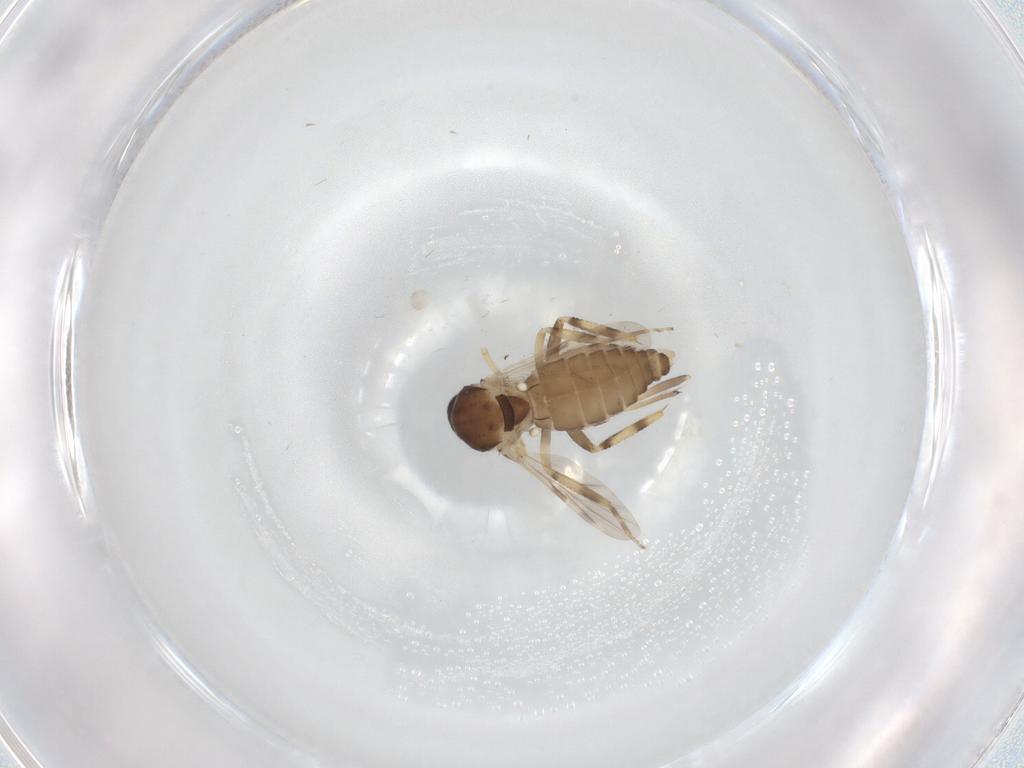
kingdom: Animalia
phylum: Arthropoda
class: Insecta
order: Diptera
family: Ceratopogonidae
